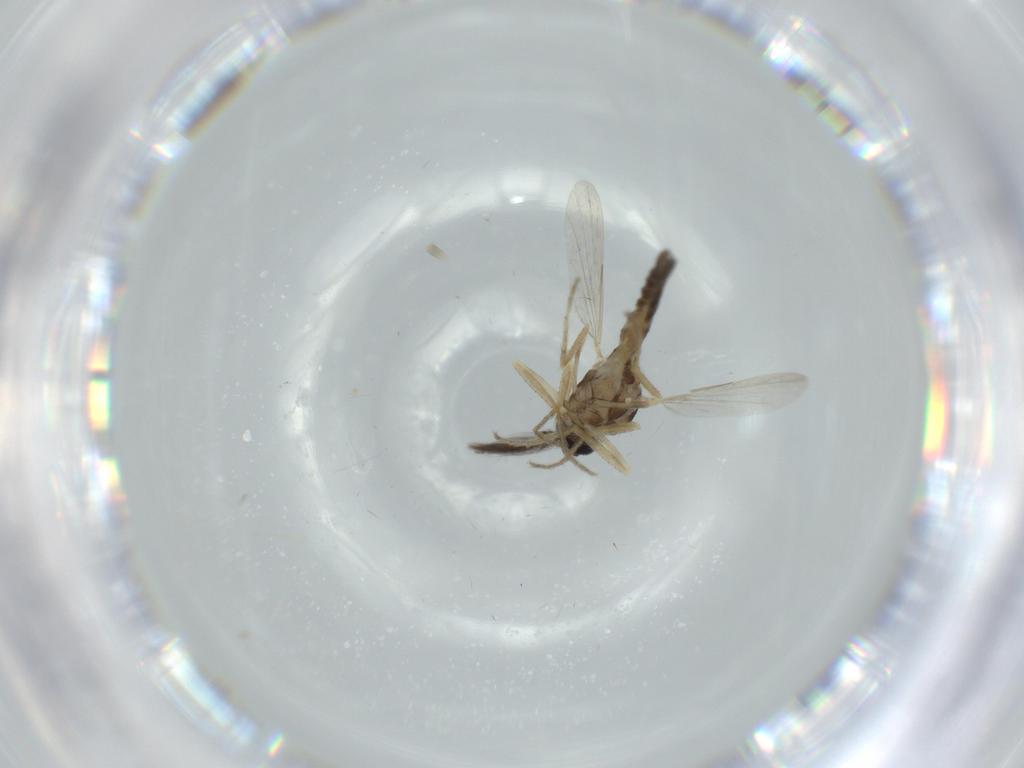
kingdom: Animalia
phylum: Arthropoda
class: Insecta
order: Diptera
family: Ceratopogonidae
